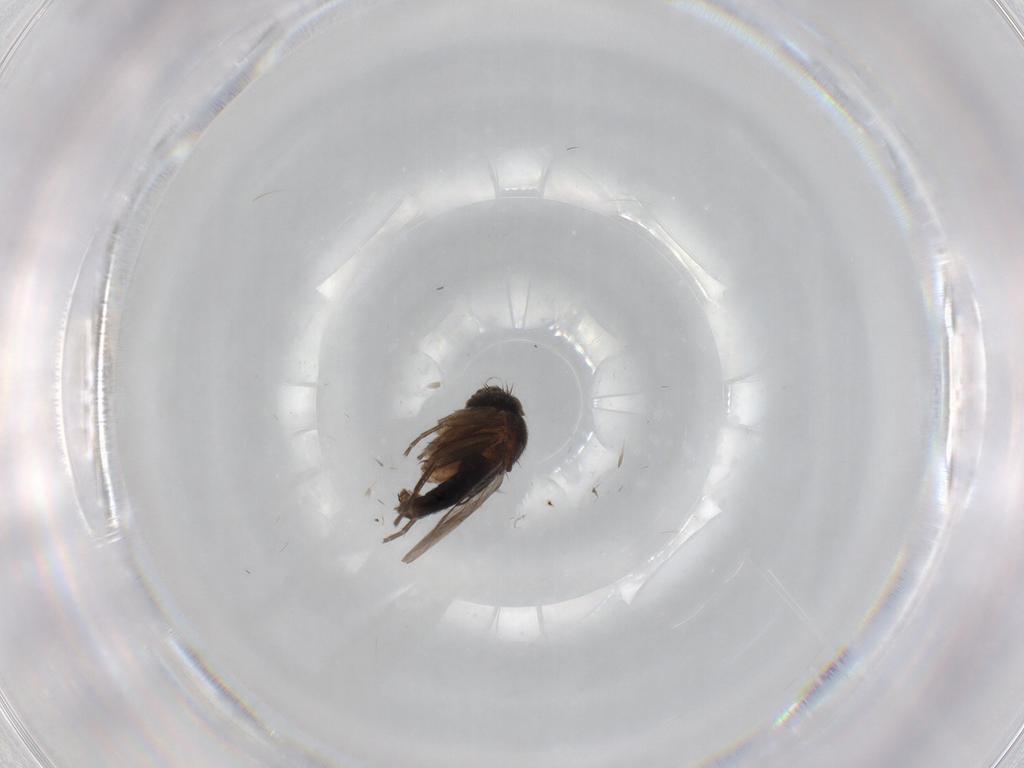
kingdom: Animalia
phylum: Arthropoda
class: Insecta
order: Diptera
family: Phoridae
